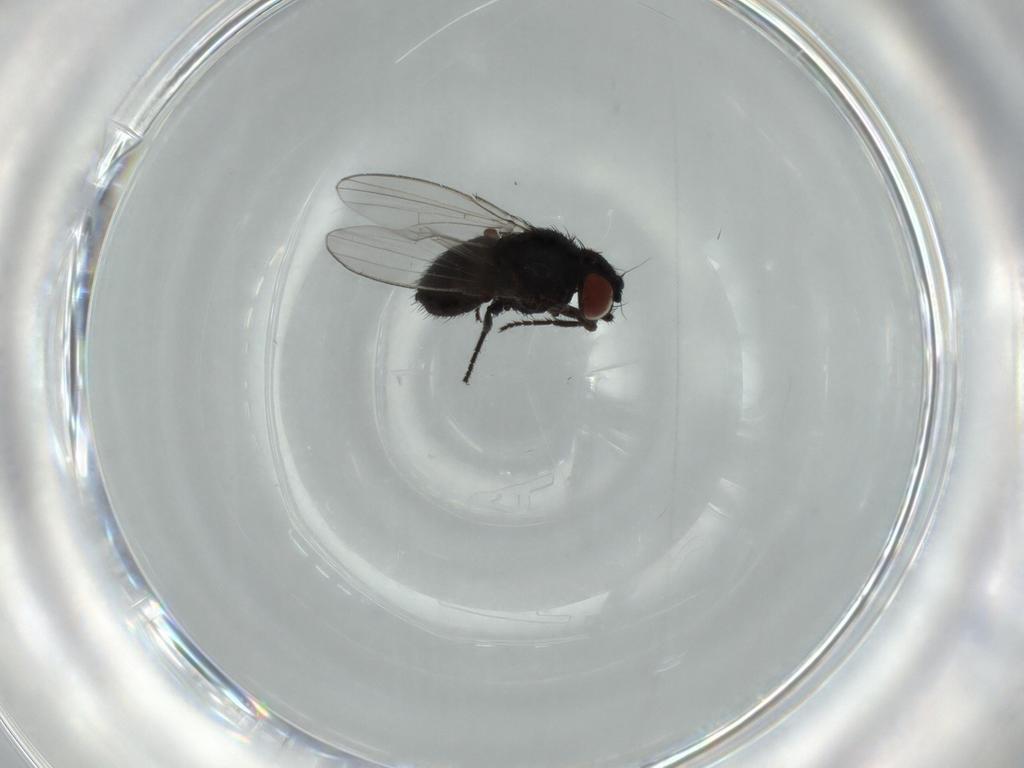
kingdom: Animalia
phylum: Arthropoda
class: Insecta
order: Diptera
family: Milichiidae
